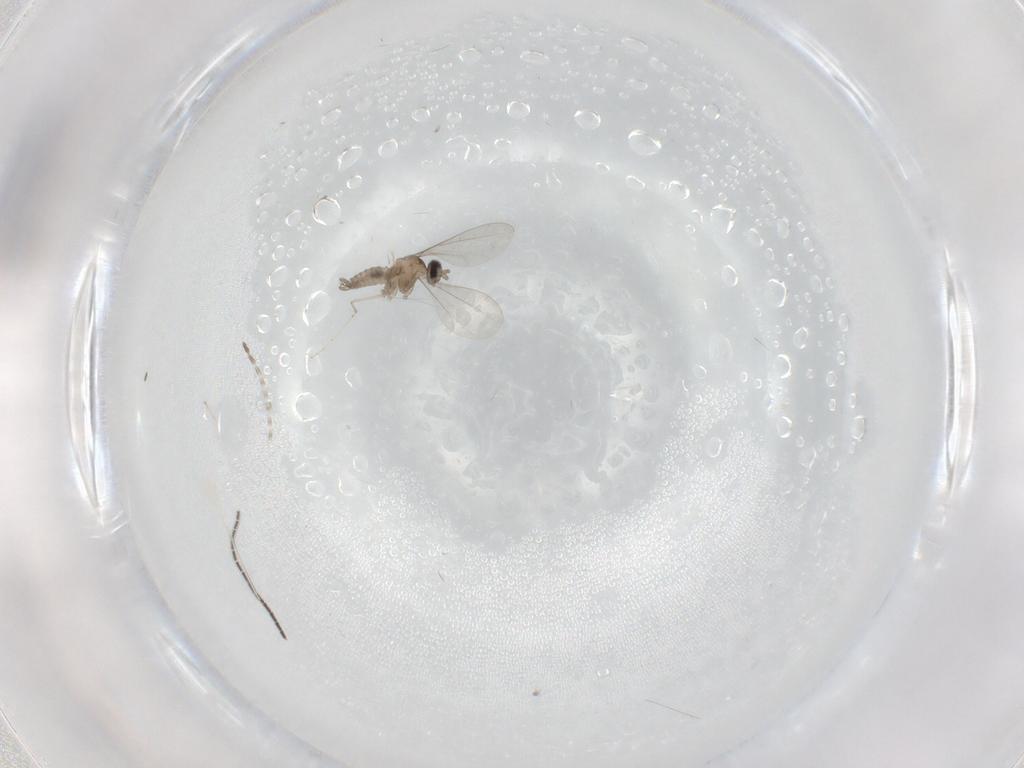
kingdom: Animalia
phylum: Arthropoda
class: Insecta
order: Diptera
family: Cecidomyiidae
